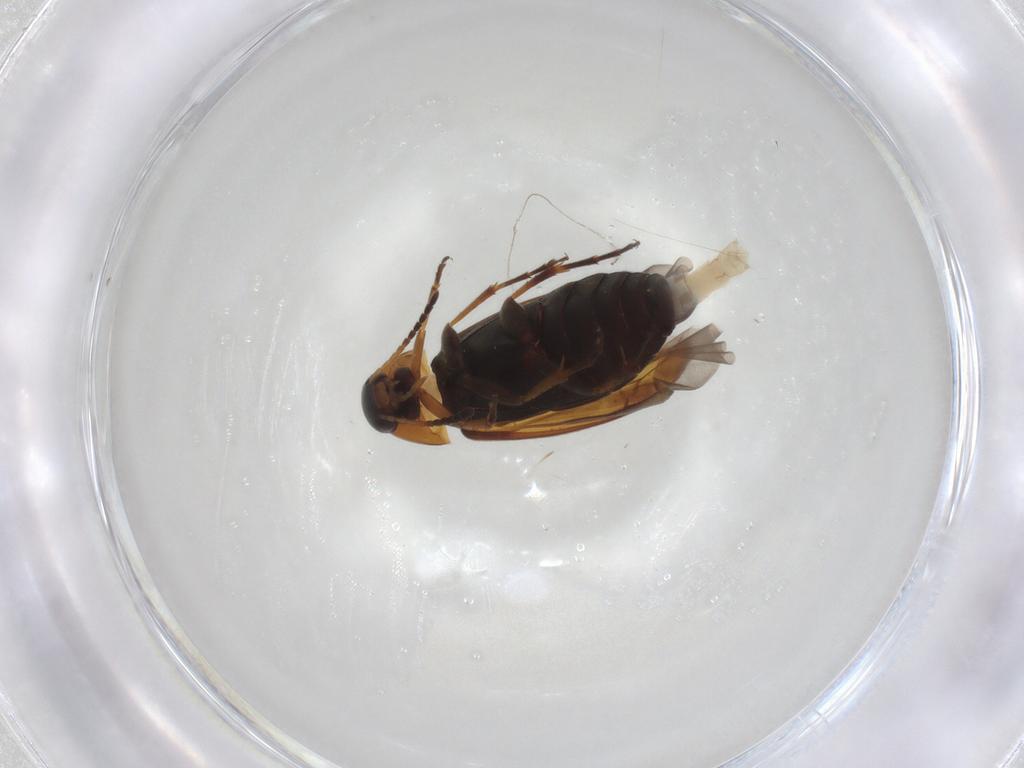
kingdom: Animalia
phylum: Arthropoda
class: Insecta
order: Coleoptera
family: Scraptiidae
